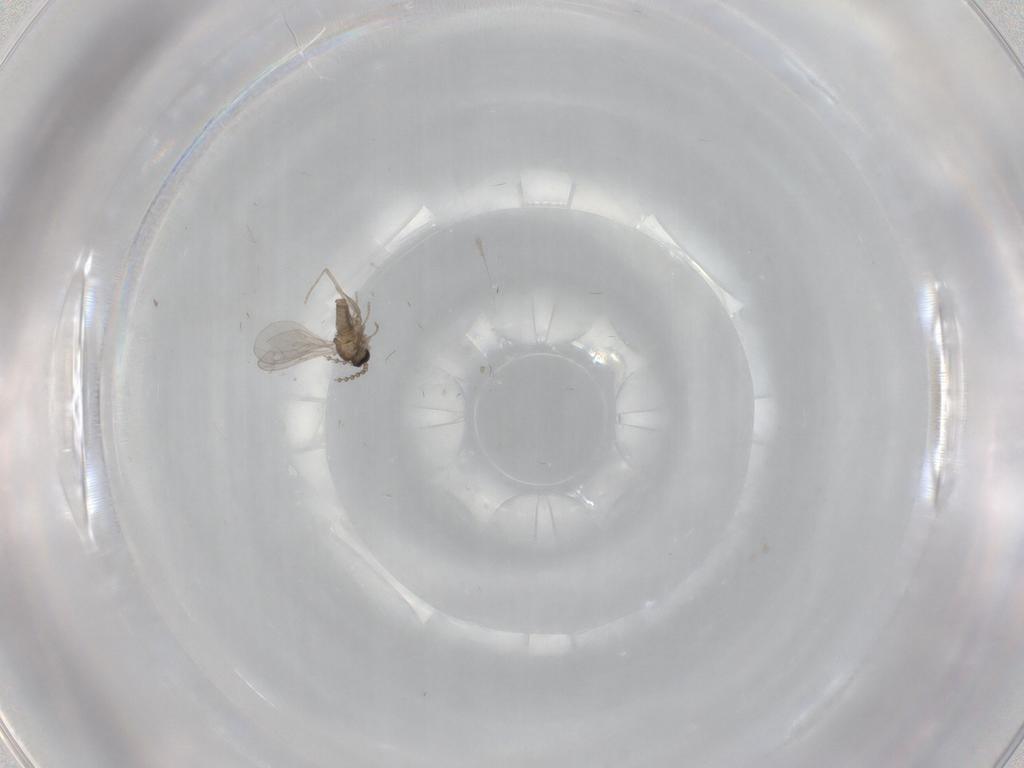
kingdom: Animalia
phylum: Arthropoda
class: Insecta
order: Diptera
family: Cecidomyiidae
